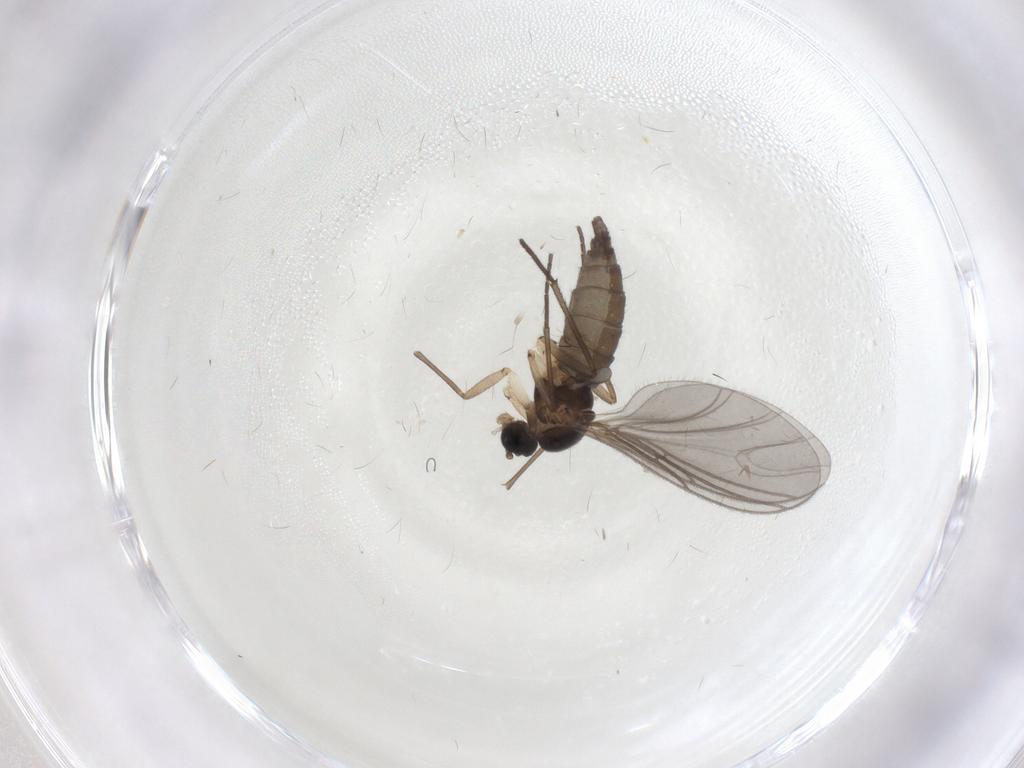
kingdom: Animalia
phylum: Arthropoda
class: Insecta
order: Diptera
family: Sciaridae
